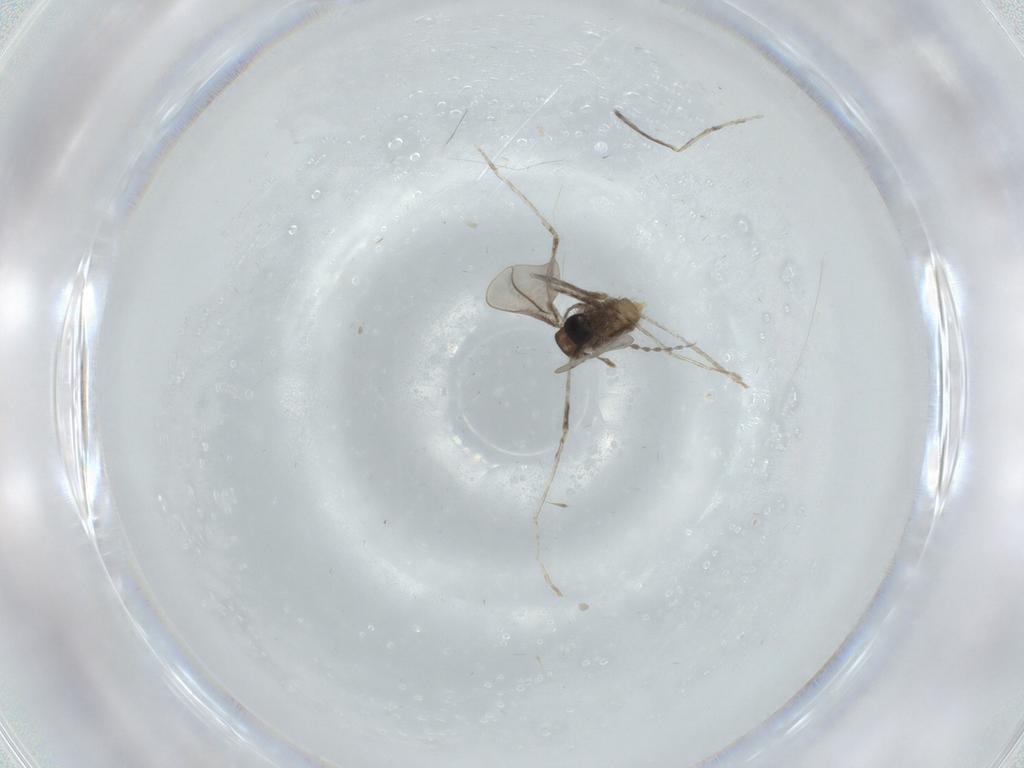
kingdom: Animalia
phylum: Arthropoda
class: Insecta
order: Diptera
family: Cecidomyiidae
